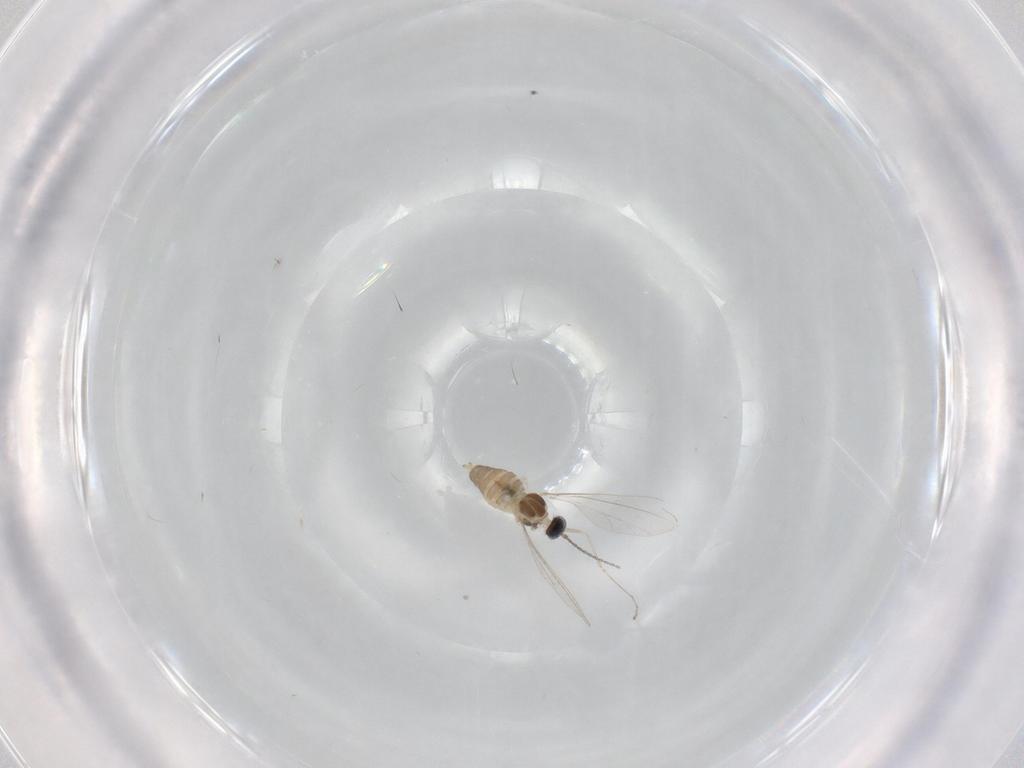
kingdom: Animalia
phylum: Arthropoda
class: Insecta
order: Diptera
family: Cecidomyiidae
